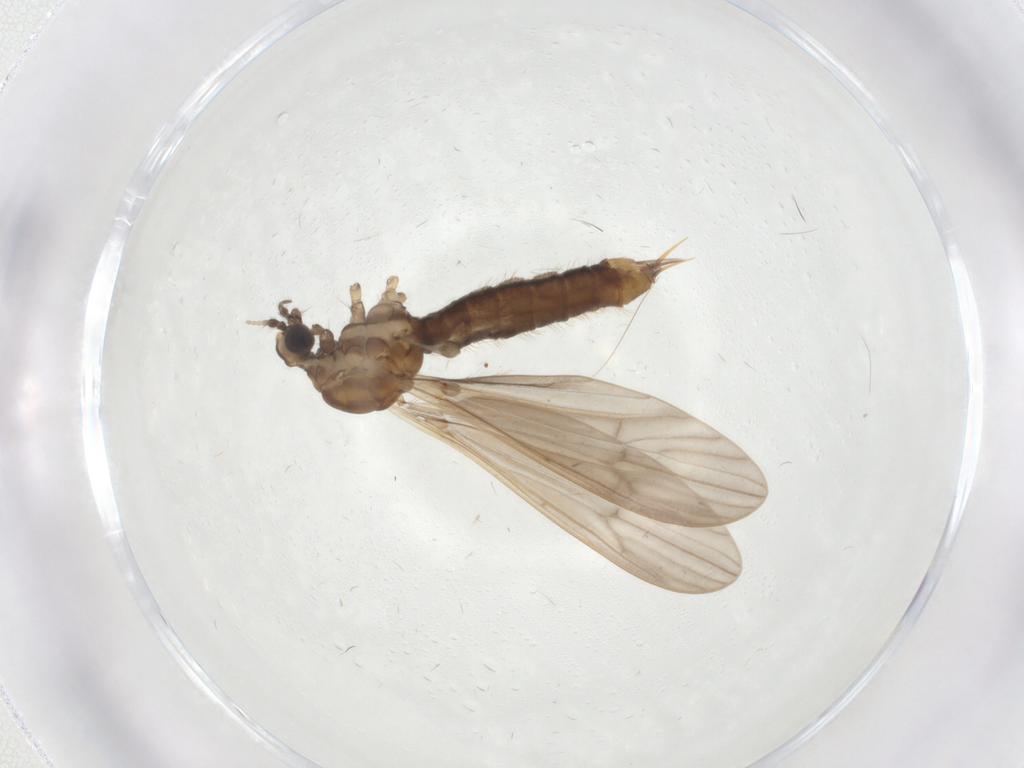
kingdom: Animalia
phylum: Arthropoda
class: Insecta
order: Diptera
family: Limoniidae
